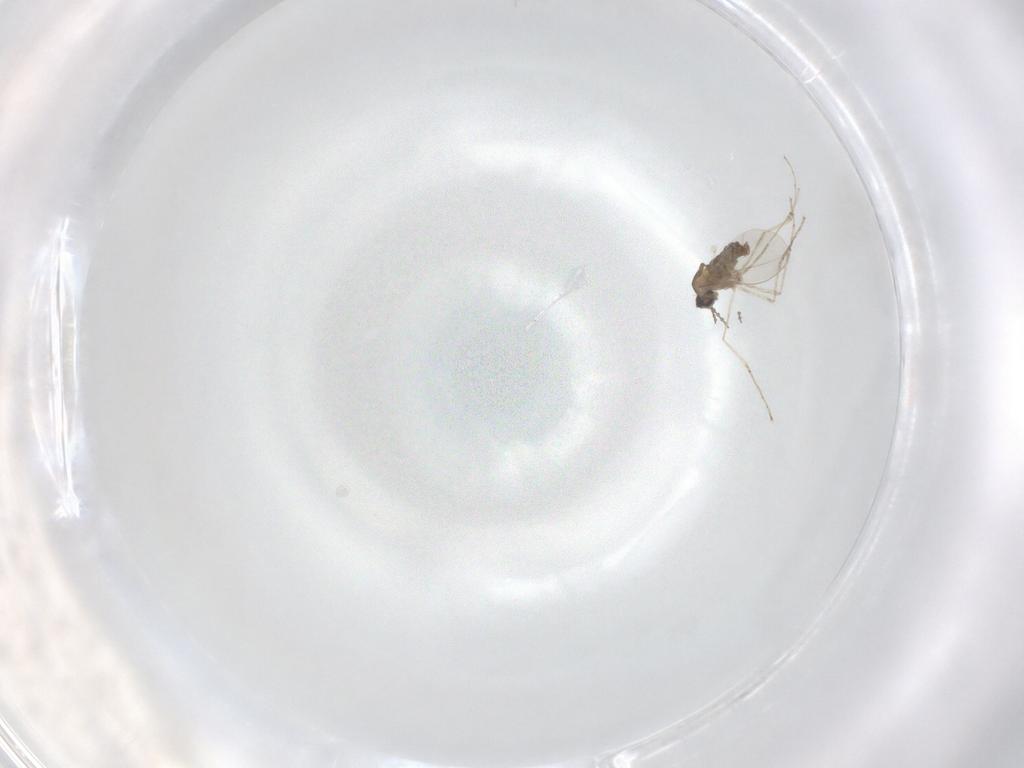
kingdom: Animalia
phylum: Arthropoda
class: Insecta
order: Diptera
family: Cecidomyiidae
